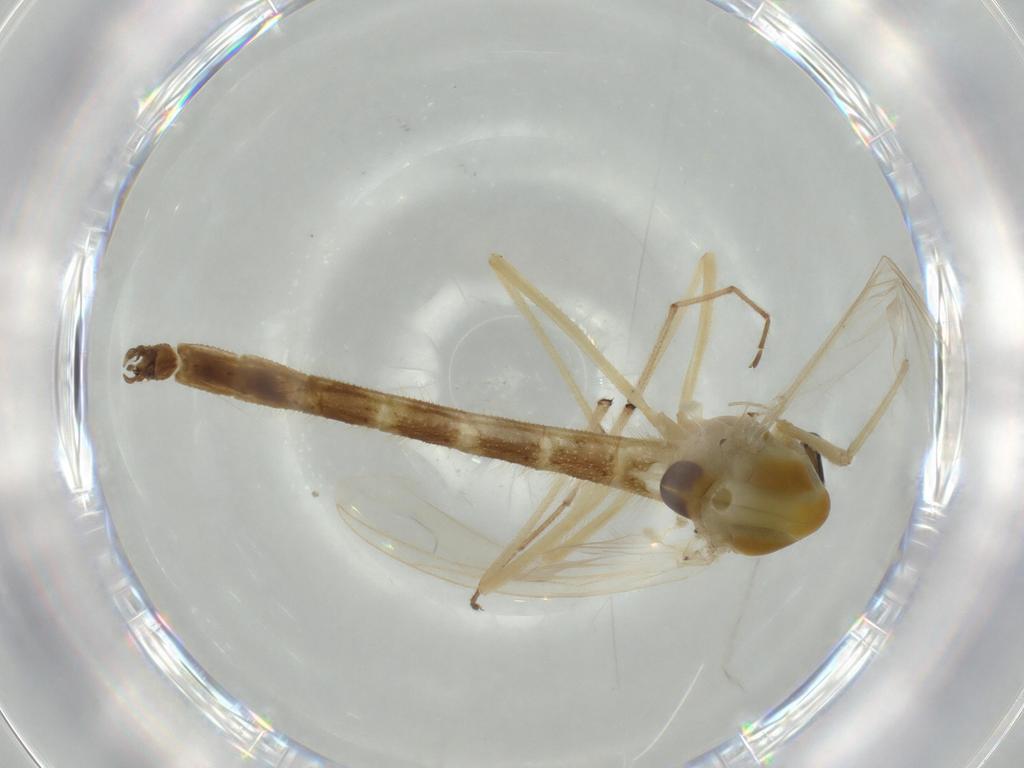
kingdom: Animalia
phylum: Arthropoda
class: Insecta
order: Diptera
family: Chironomidae
